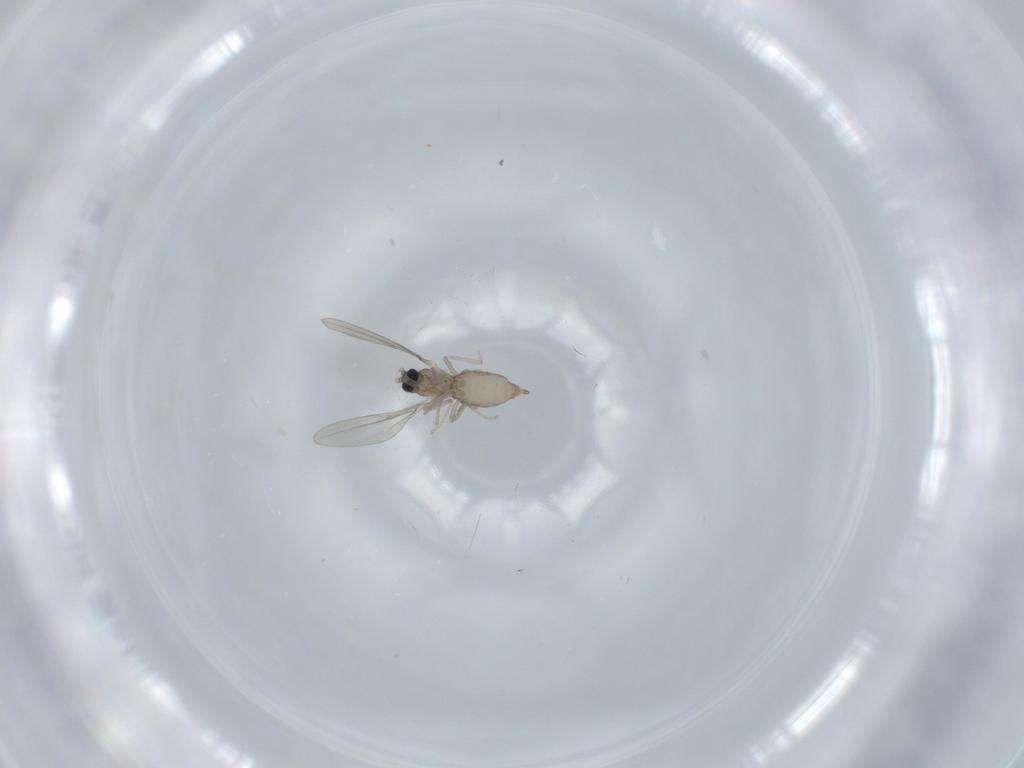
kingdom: Animalia
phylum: Arthropoda
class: Insecta
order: Diptera
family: Cecidomyiidae
